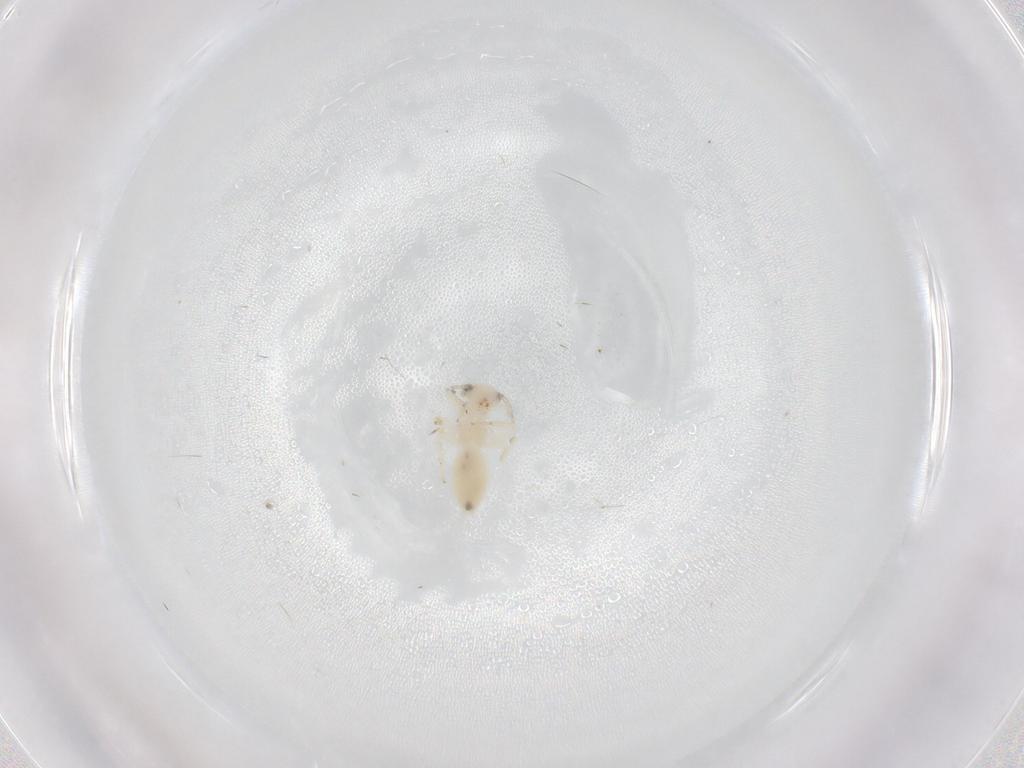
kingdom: Animalia
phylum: Arthropoda
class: Insecta
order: Psocodea
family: Lepidopsocidae
